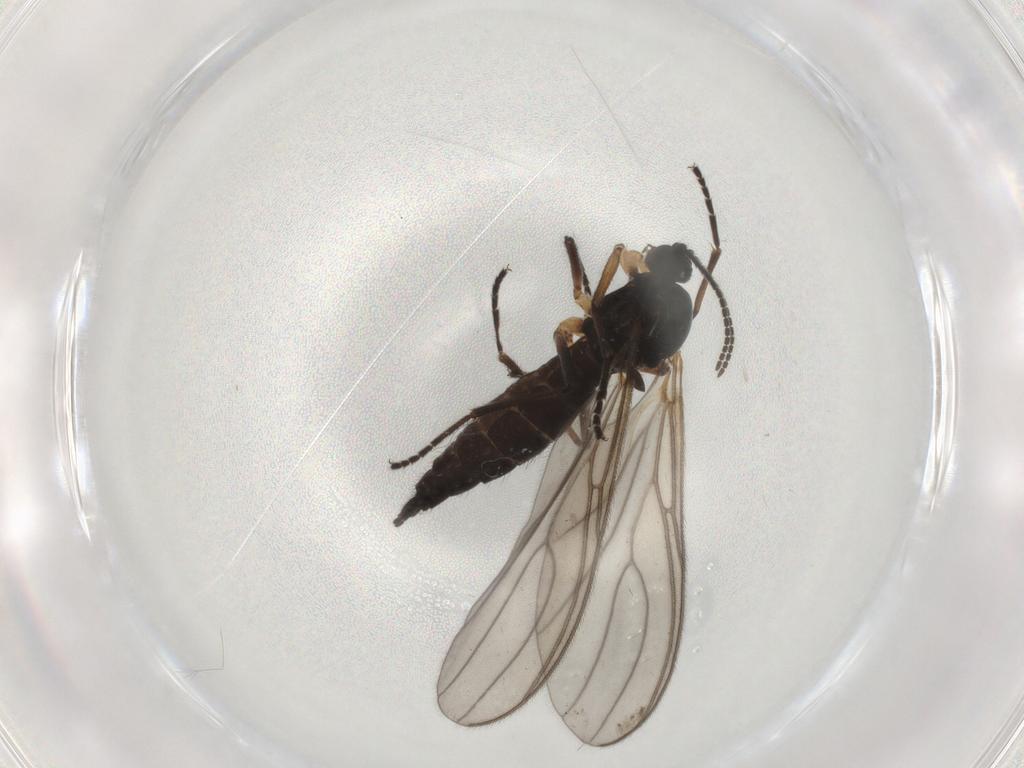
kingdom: Animalia
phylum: Arthropoda
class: Insecta
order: Diptera
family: Sciaridae
